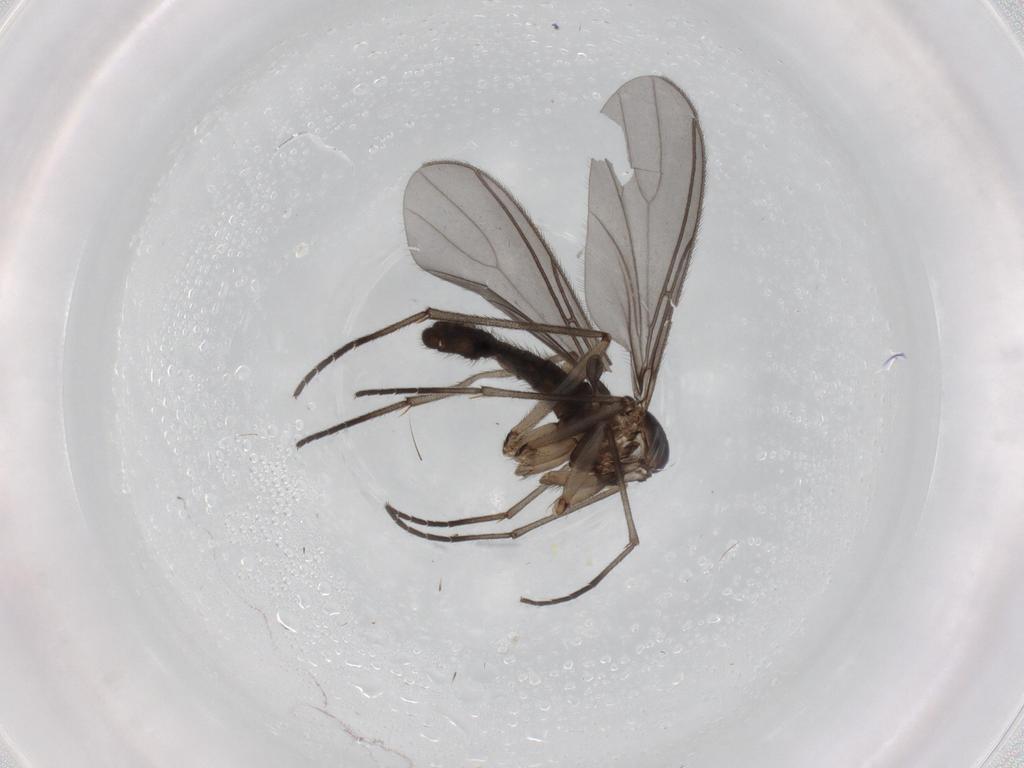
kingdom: Animalia
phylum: Arthropoda
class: Insecta
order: Diptera
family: Sciaridae
